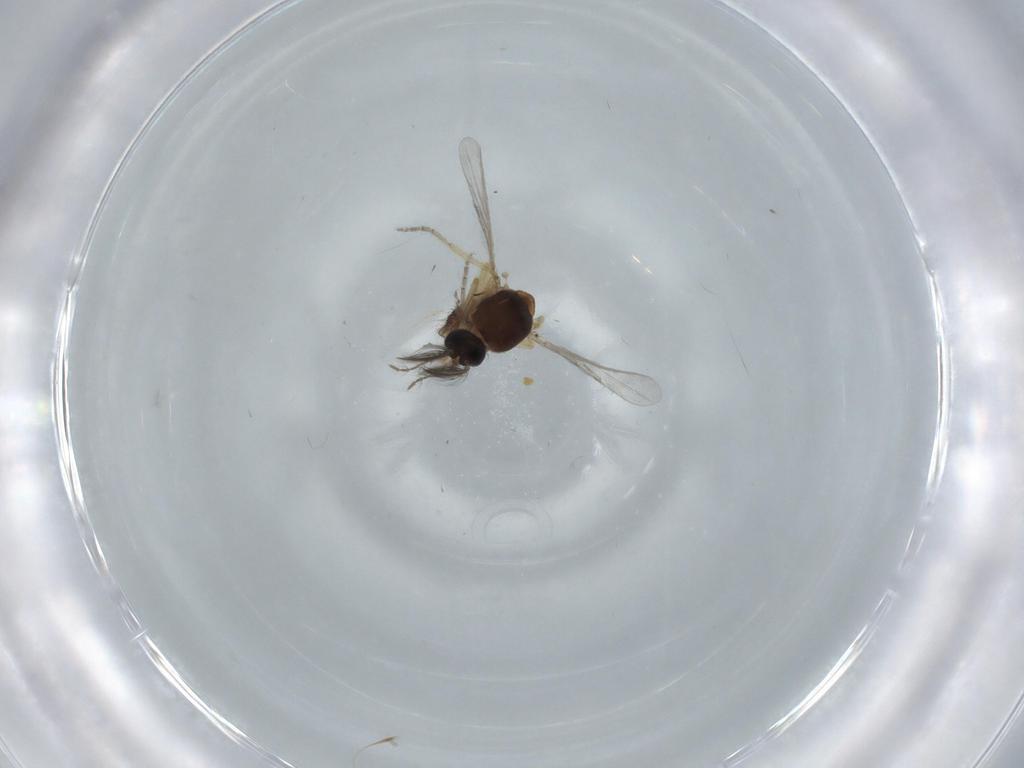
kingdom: Animalia
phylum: Arthropoda
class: Insecta
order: Diptera
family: Ceratopogonidae
